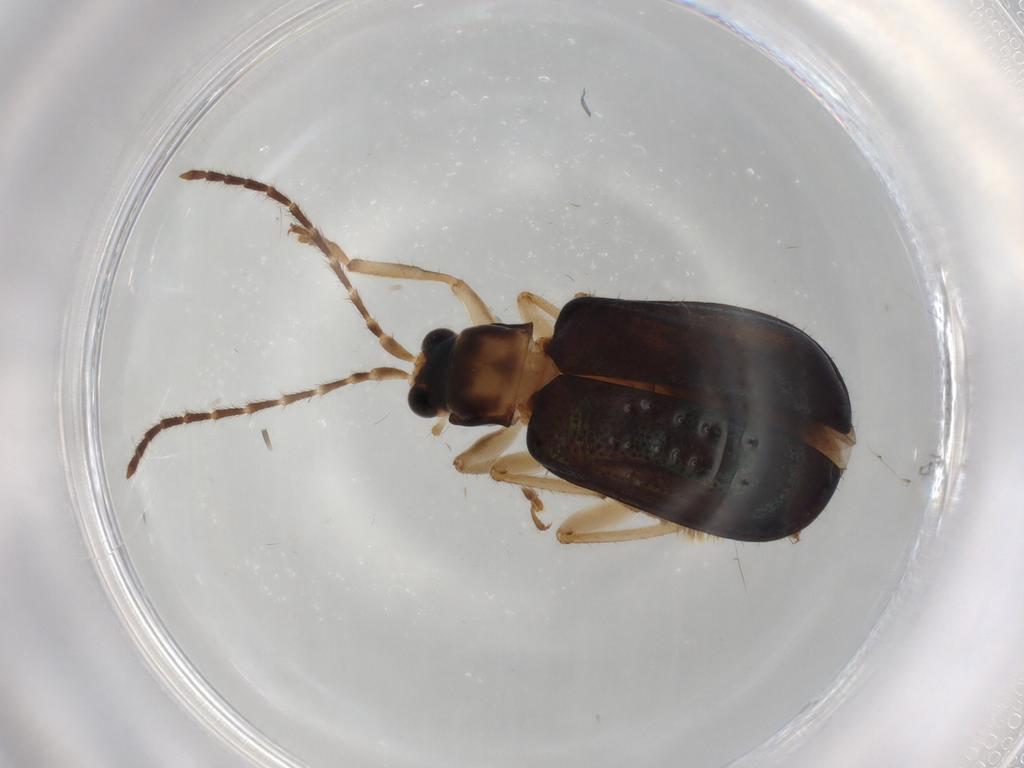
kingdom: Animalia
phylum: Arthropoda
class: Insecta
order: Coleoptera
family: Chrysomelidae
